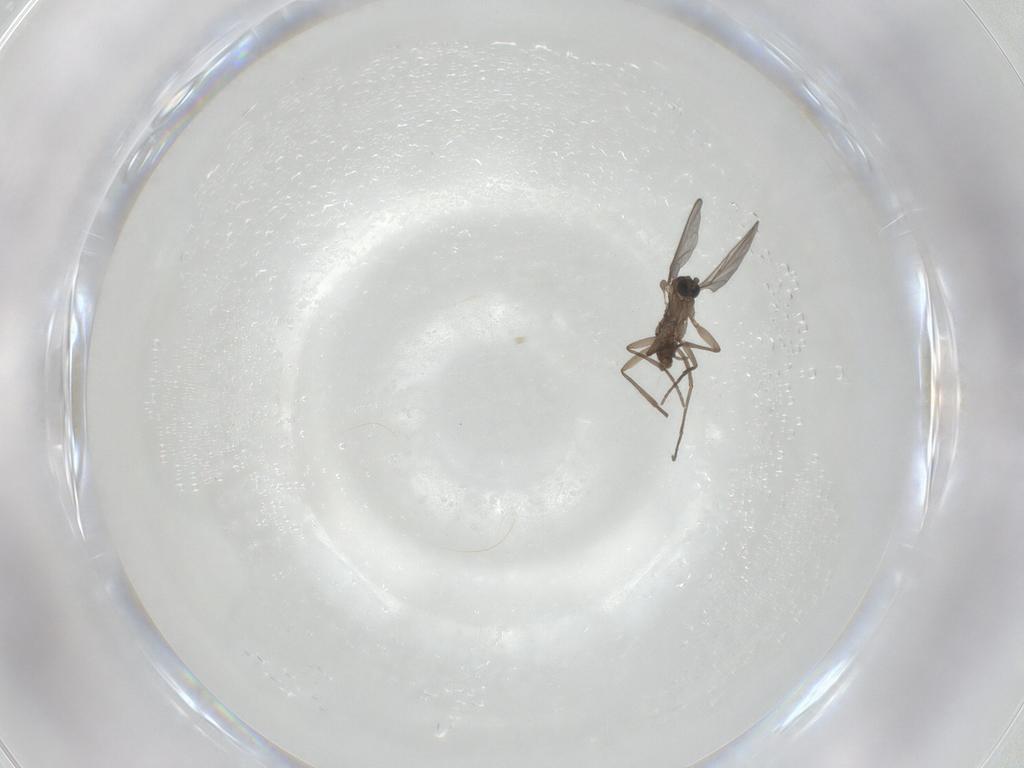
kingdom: Animalia
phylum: Arthropoda
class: Insecta
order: Diptera
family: Sciaridae
